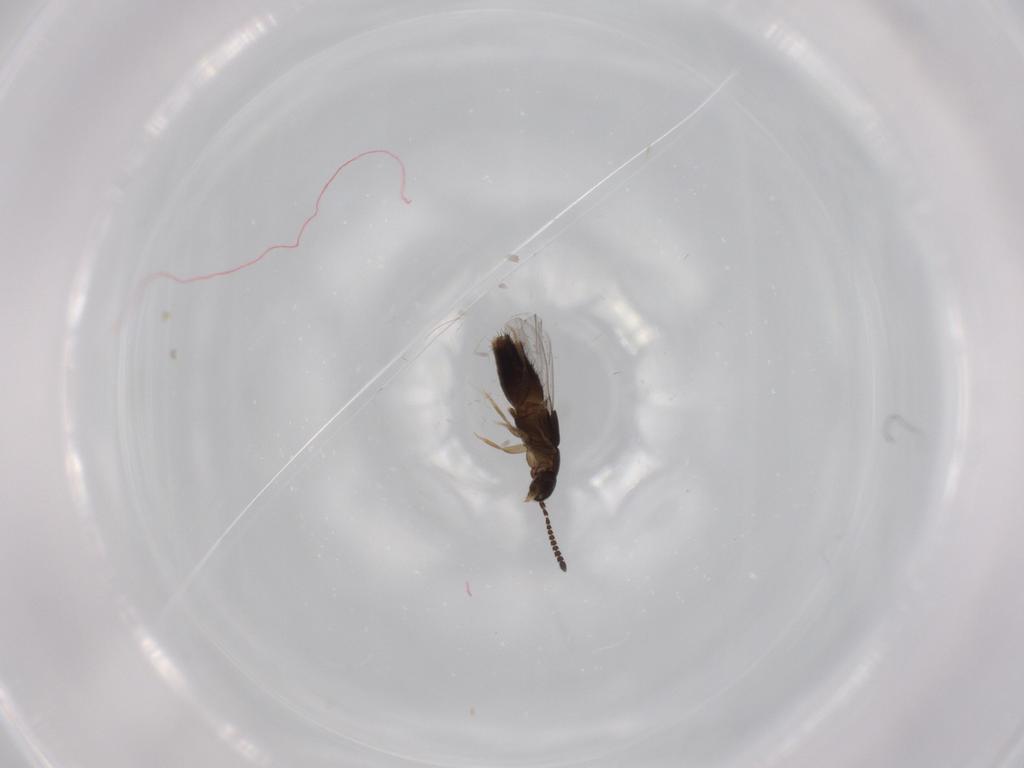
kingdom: Animalia
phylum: Arthropoda
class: Insecta
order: Coleoptera
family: Staphylinidae
